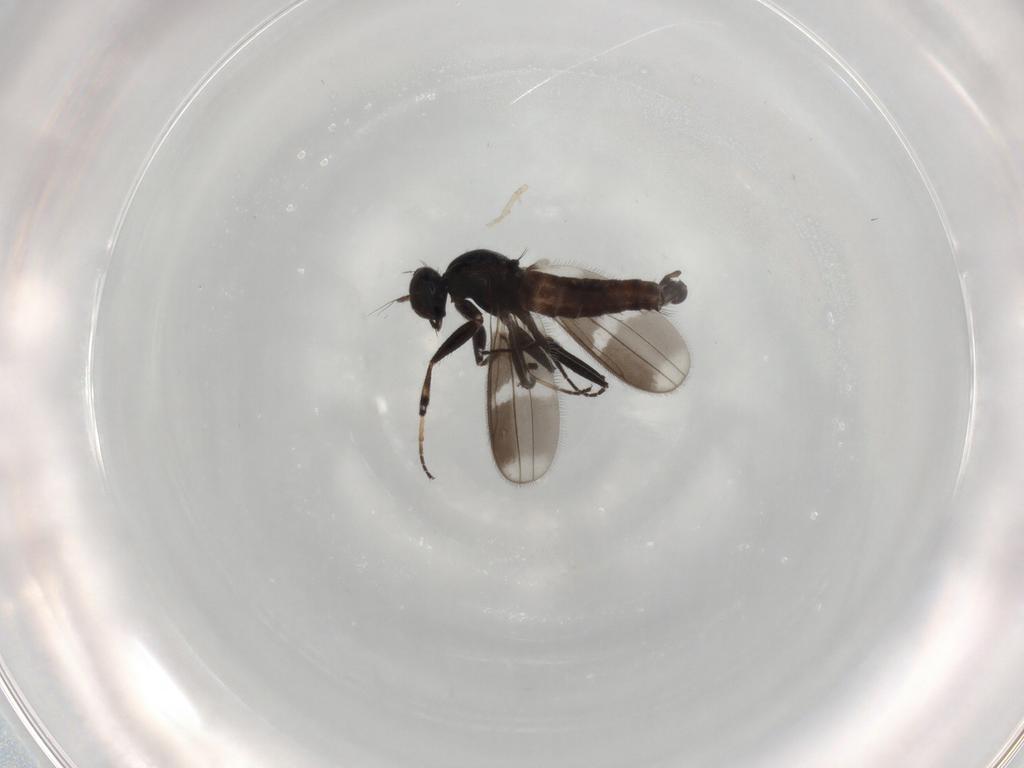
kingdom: Animalia
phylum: Arthropoda
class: Insecta
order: Diptera
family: Hybotidae
